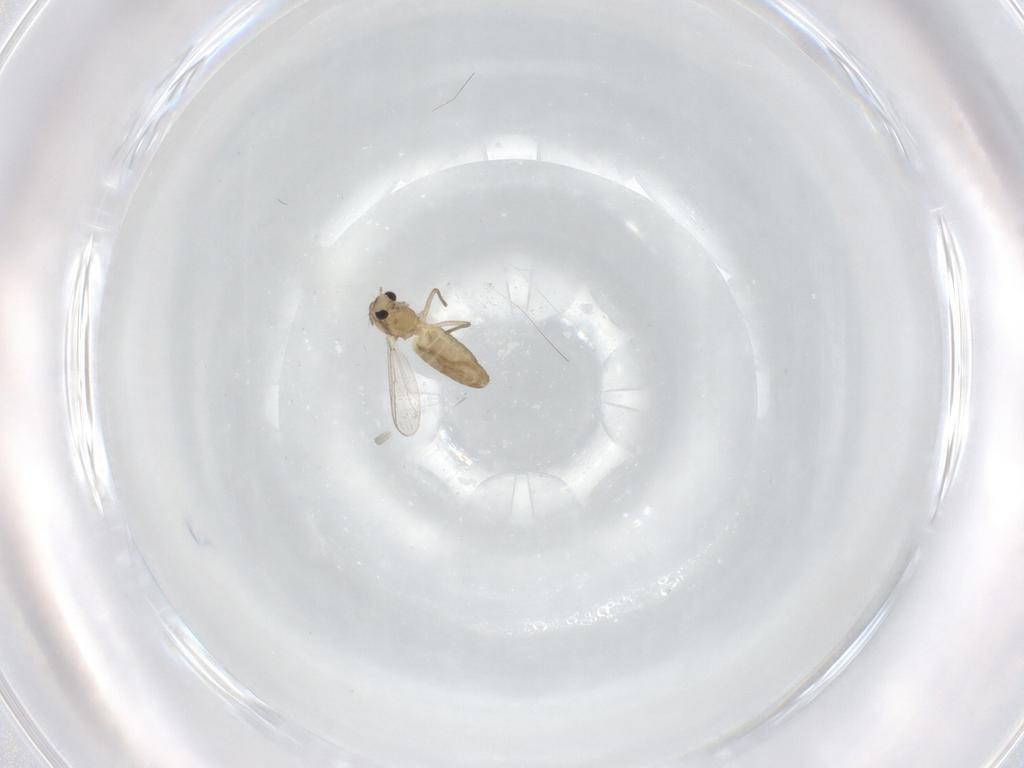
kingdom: Animalia
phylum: Arthropoda
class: Insecta
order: Diptera
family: Chironomidae
